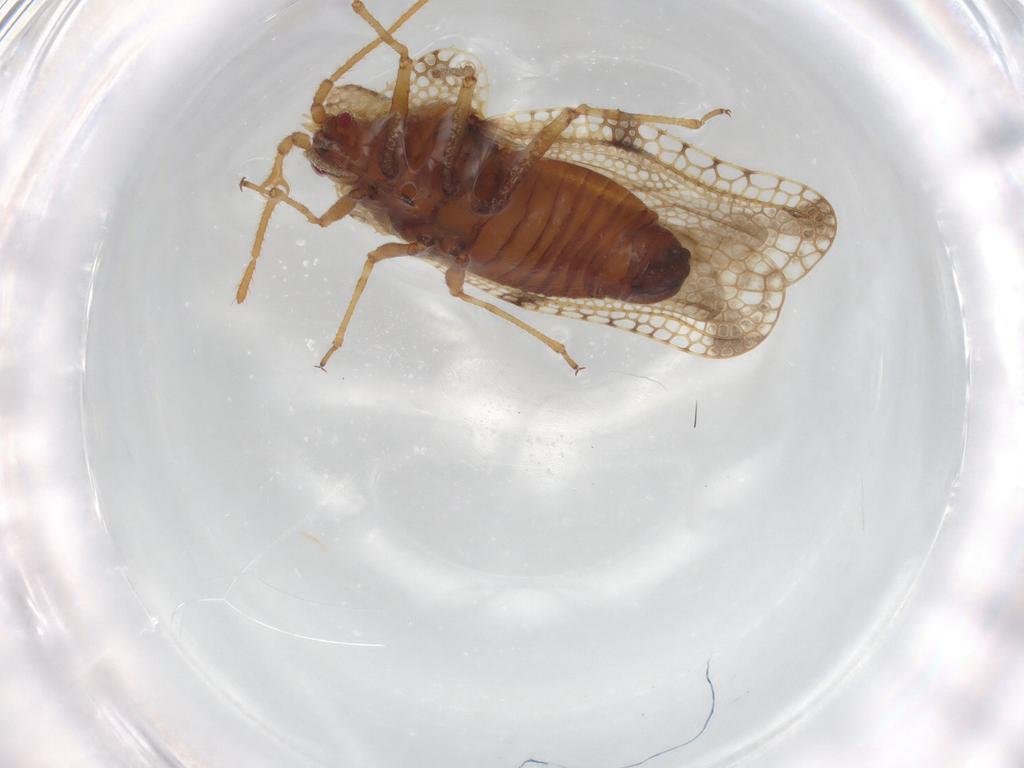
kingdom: Animalia
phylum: Arthropoda
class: Insecta
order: Hemiptera
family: Tingidae
